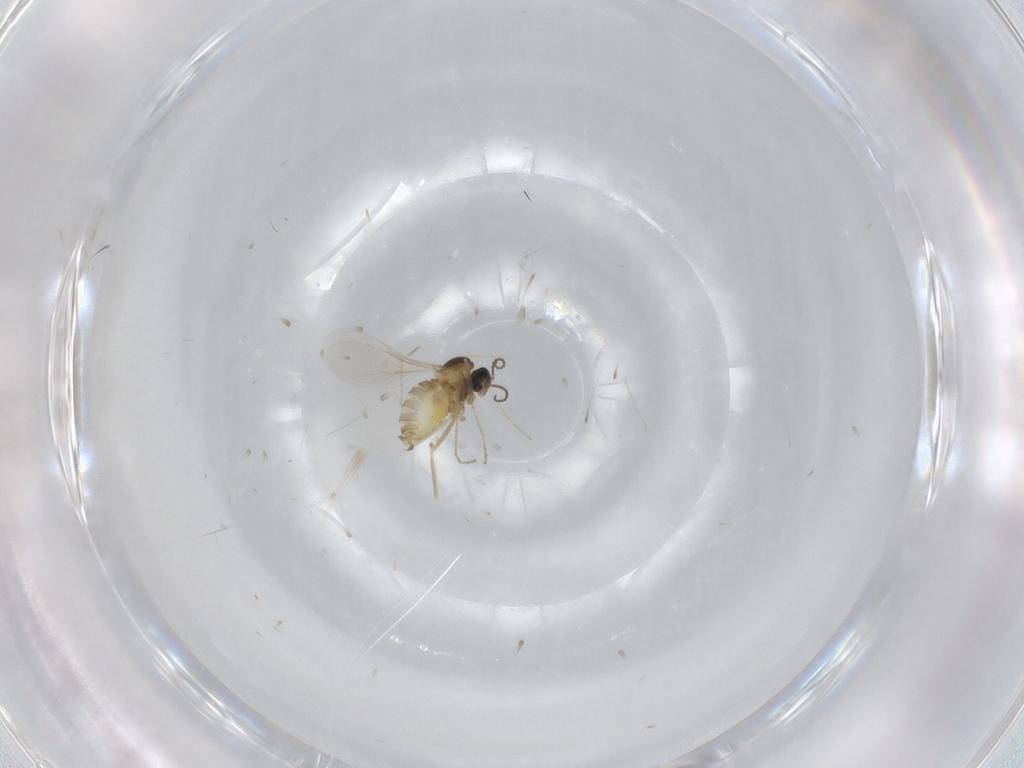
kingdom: Animalia
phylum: Arthropoda
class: Insecta
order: Diptera
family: Cecidomyiidae
